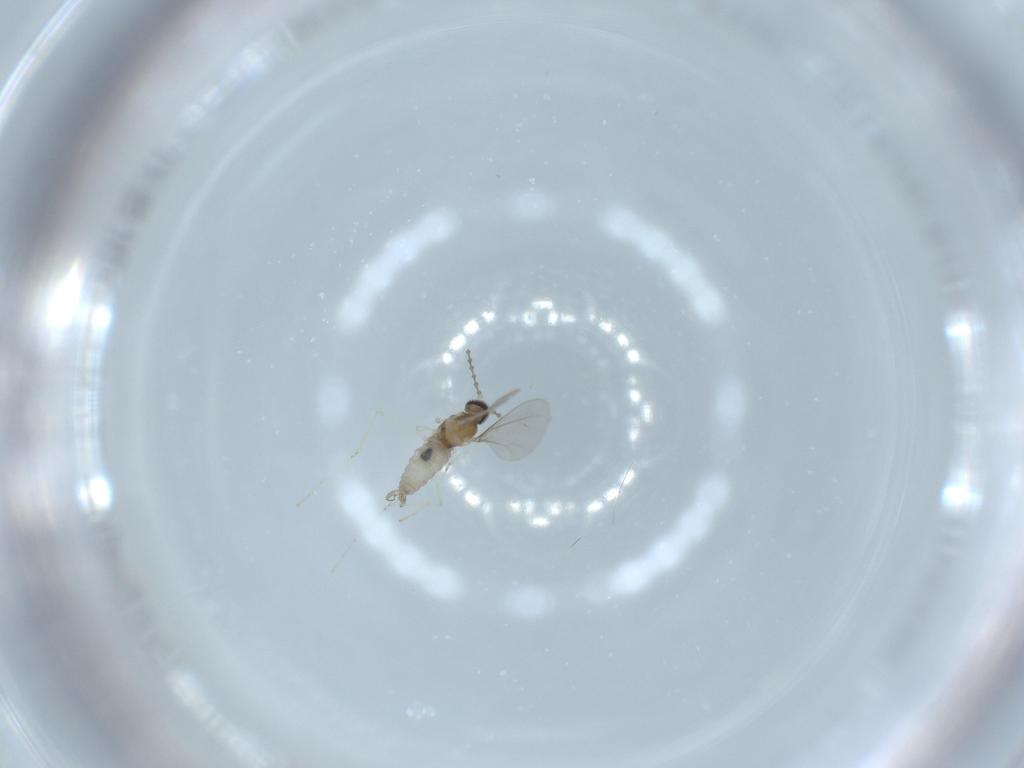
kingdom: Animalia
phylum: Arthropoda
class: Insecta
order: Diptera
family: Cecidomyiidae
